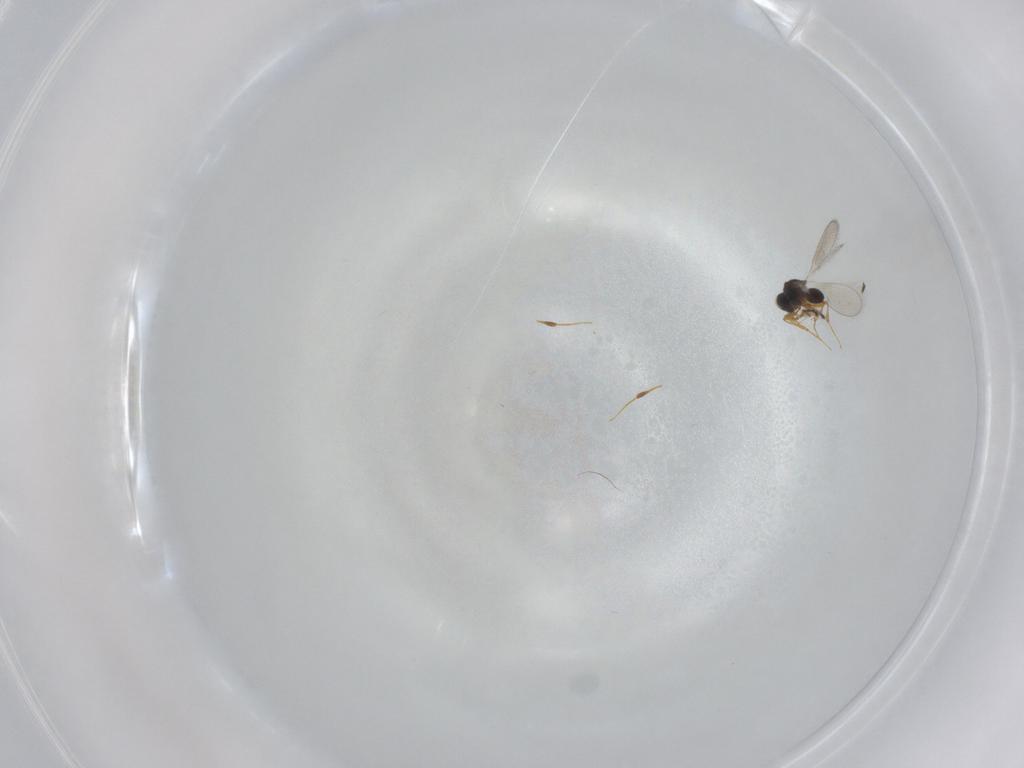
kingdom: Animalia
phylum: Arthropoda
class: Insecta
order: Hymenoptera
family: Platygastridae
